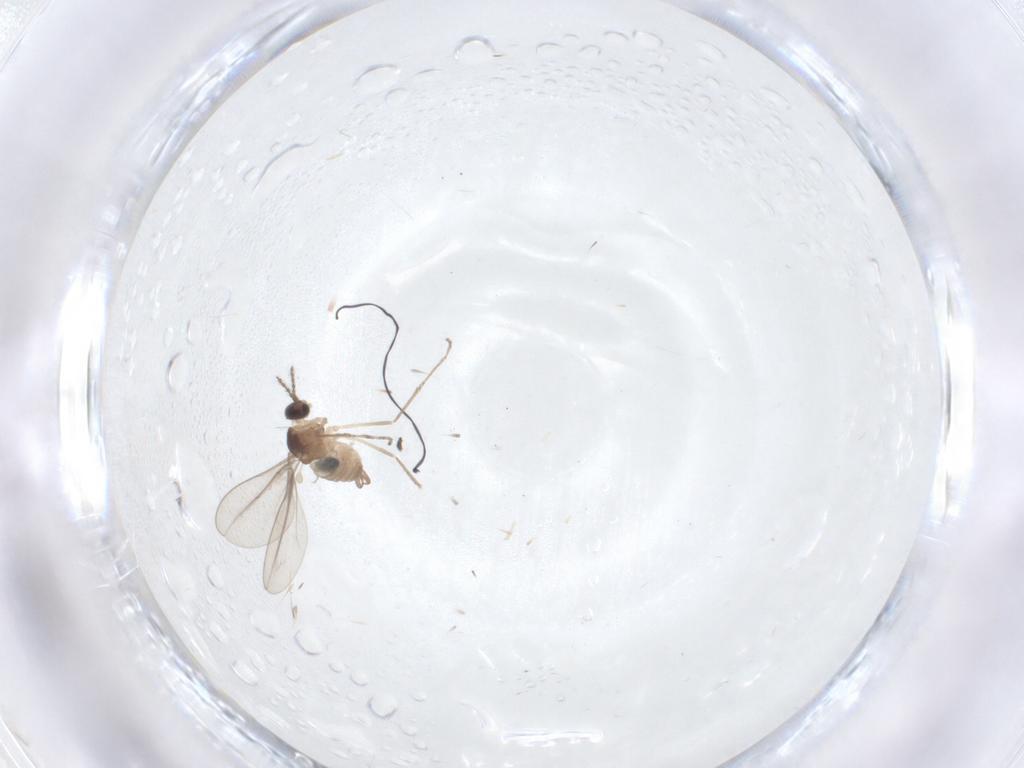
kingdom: Animalia
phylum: Arthropoda
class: Insecta
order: Diptera
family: Cecidomyiidae
